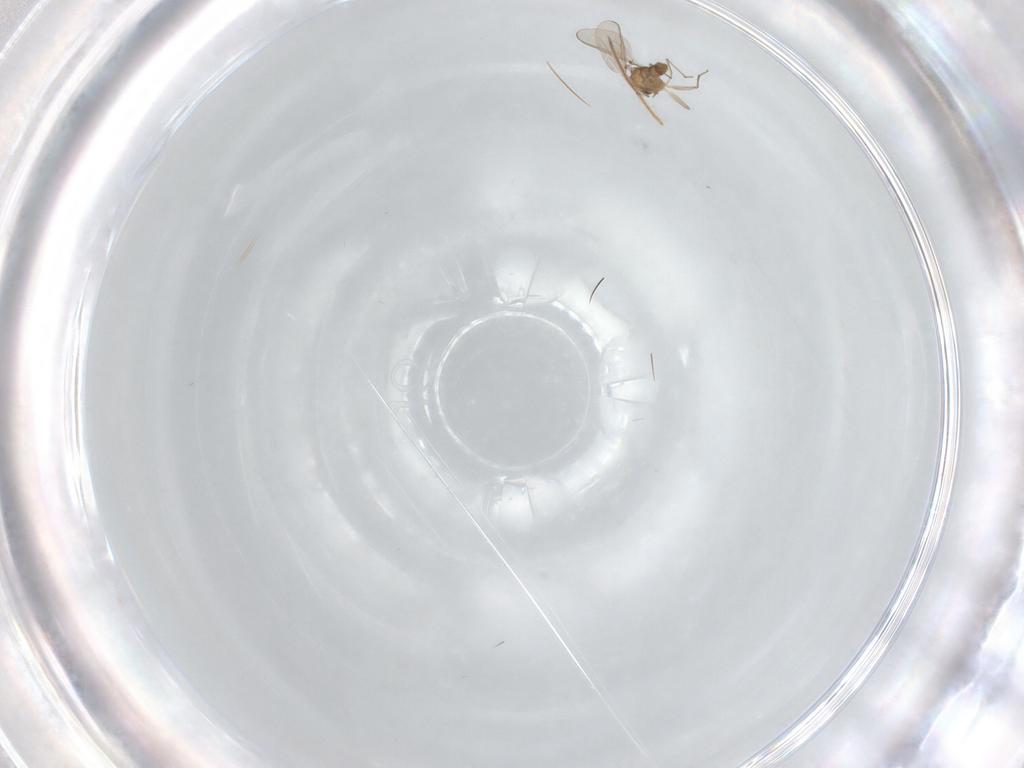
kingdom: Animalia
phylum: Arthropoda
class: Insecta
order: Diptera
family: Chironomidae
